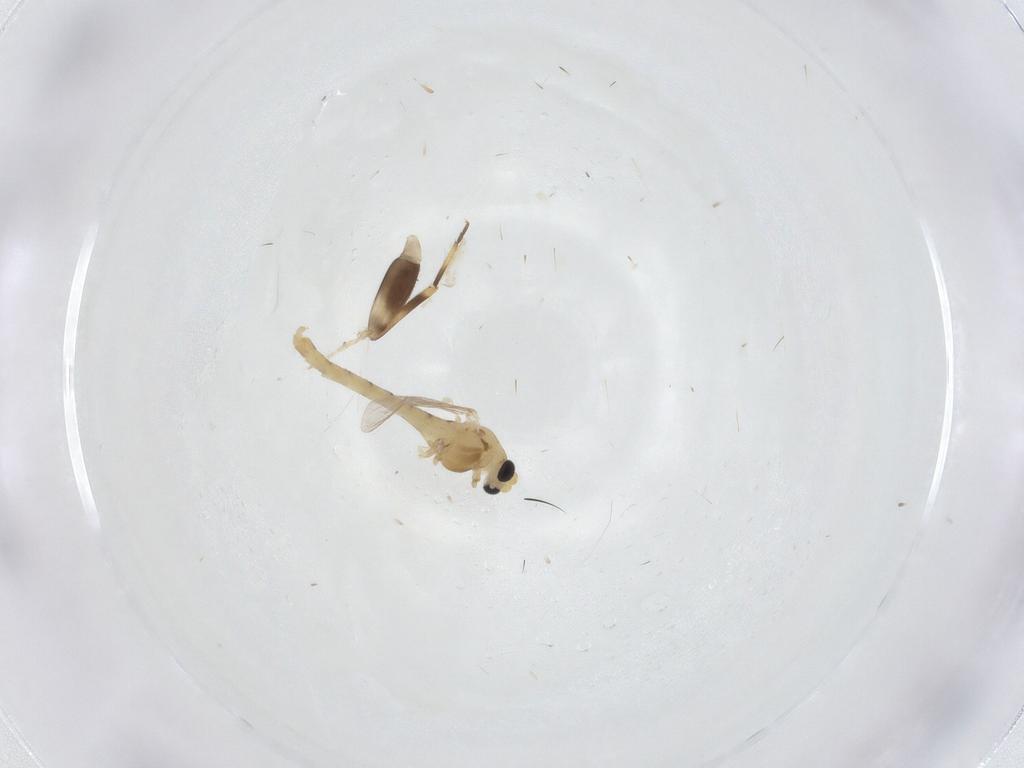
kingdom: Animalia
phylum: Arthropoda
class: Insecta
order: Diptera
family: Chironomidae
